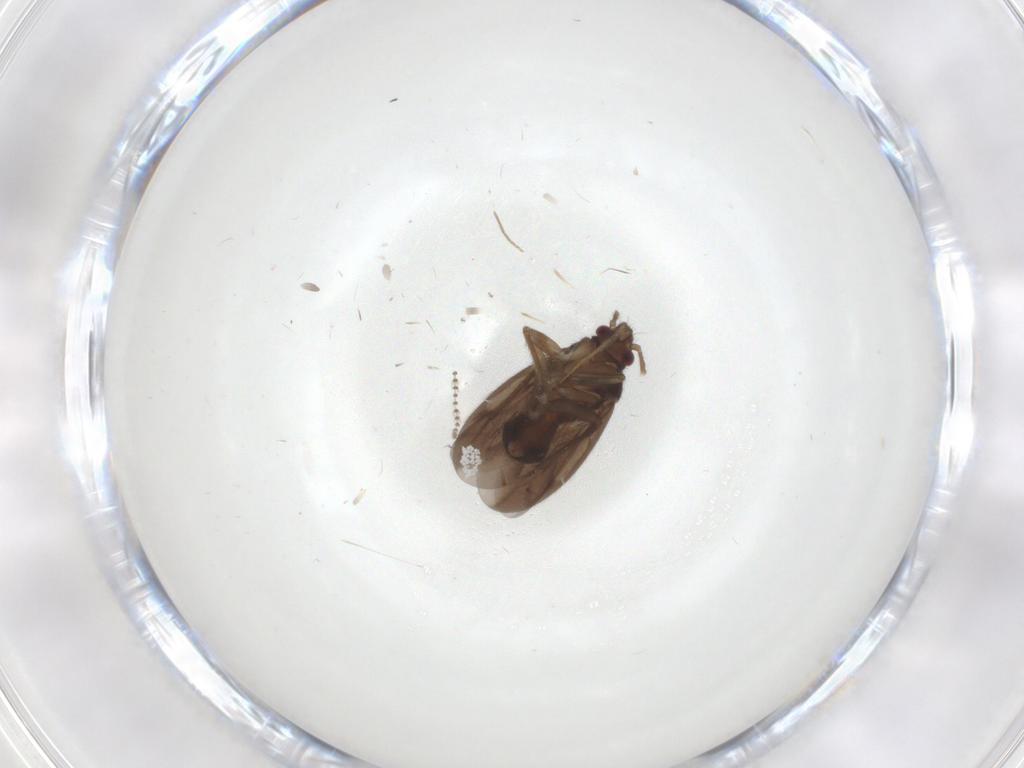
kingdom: Animalia
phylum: Arthropoda
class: Insecta
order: Hemiptera
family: Ceratocombidae
